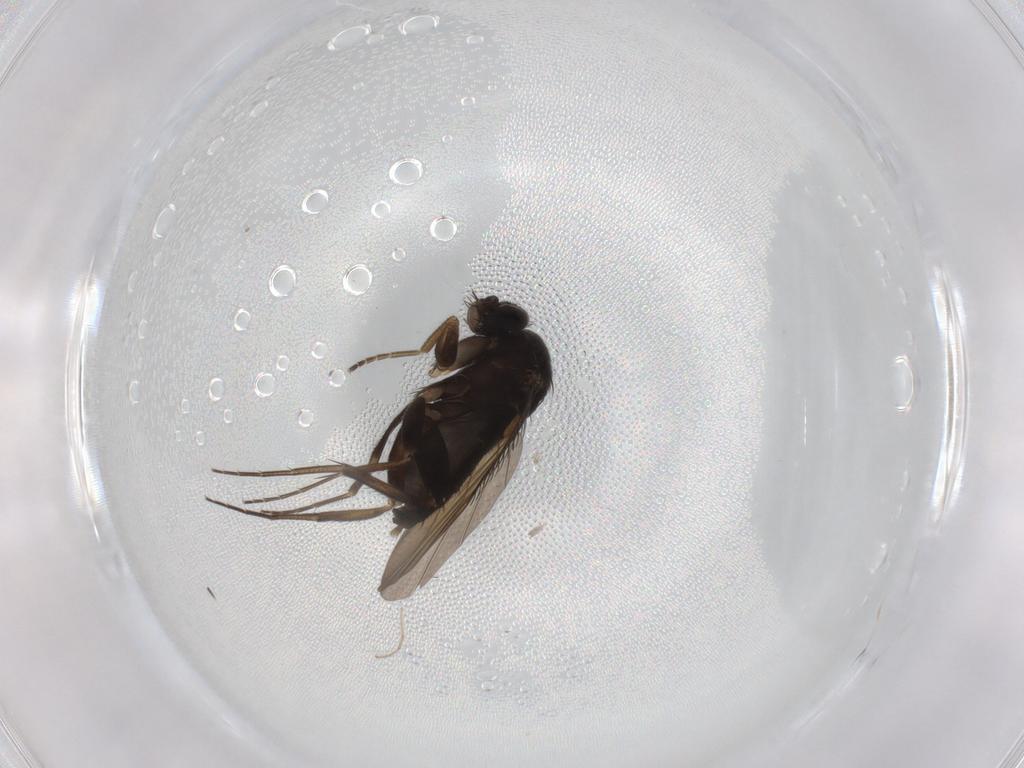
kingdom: Animalia
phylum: Arthropoda
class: Insecta
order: Diptera
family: Phoridae
